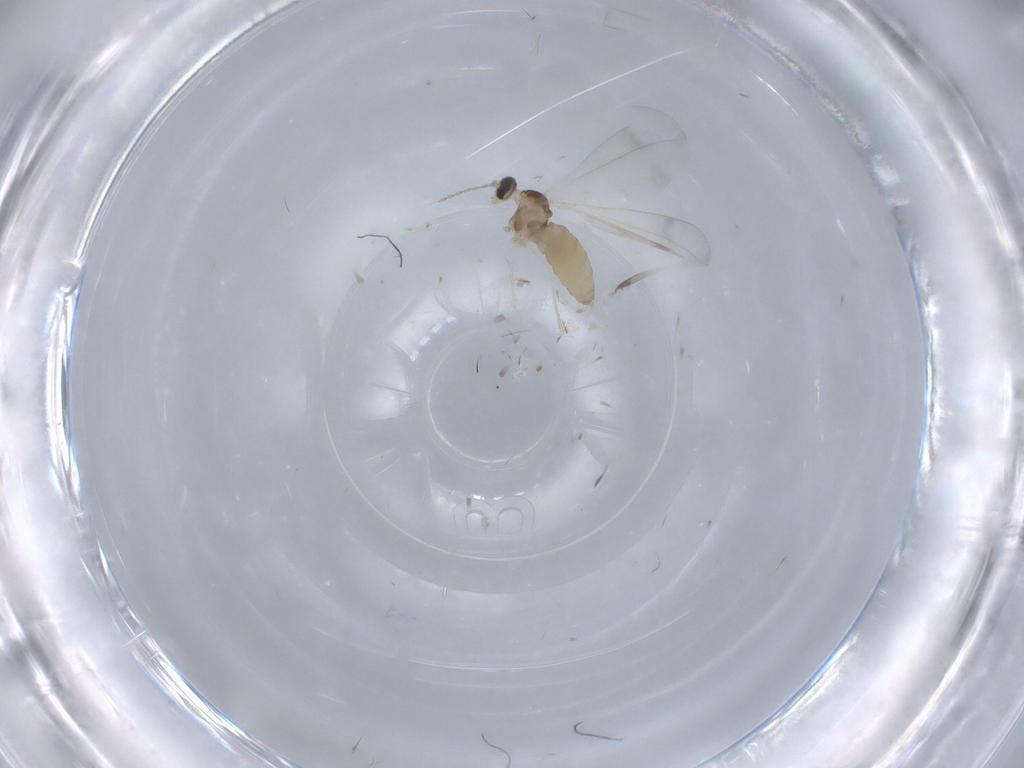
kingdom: Animalia
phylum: Arthropoda
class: Insecta
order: Diptera
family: Cecidomyiidae
